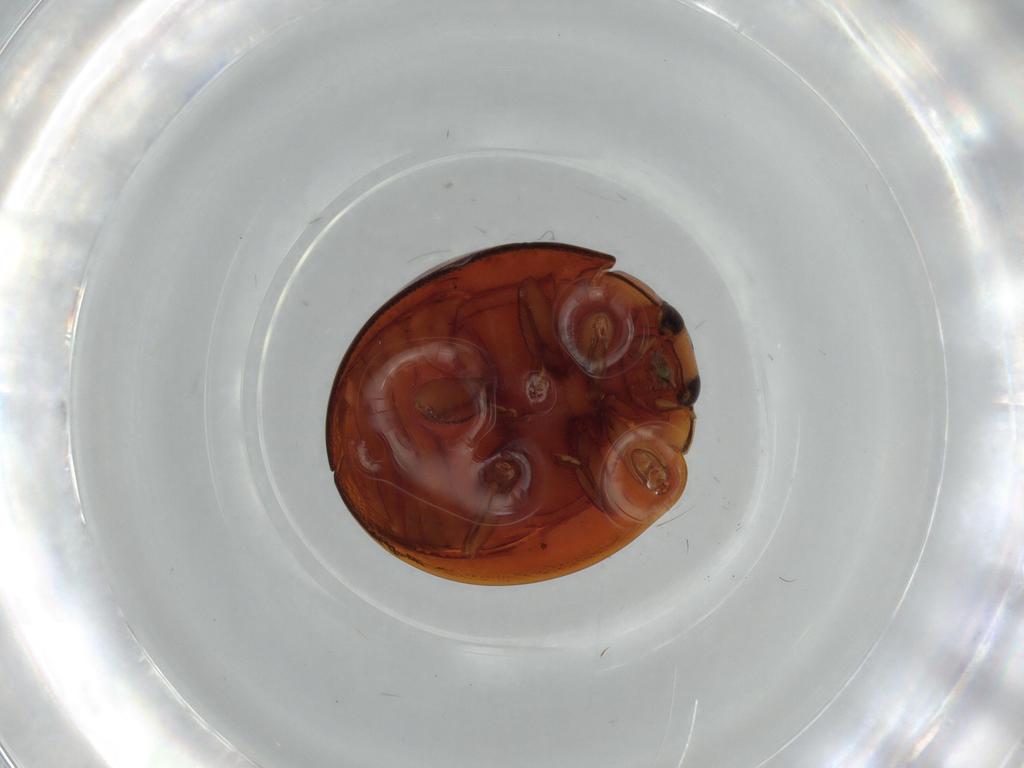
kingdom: Animalia
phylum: Arthropoda
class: Insecta
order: Coleoptera
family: Coccinellidae
